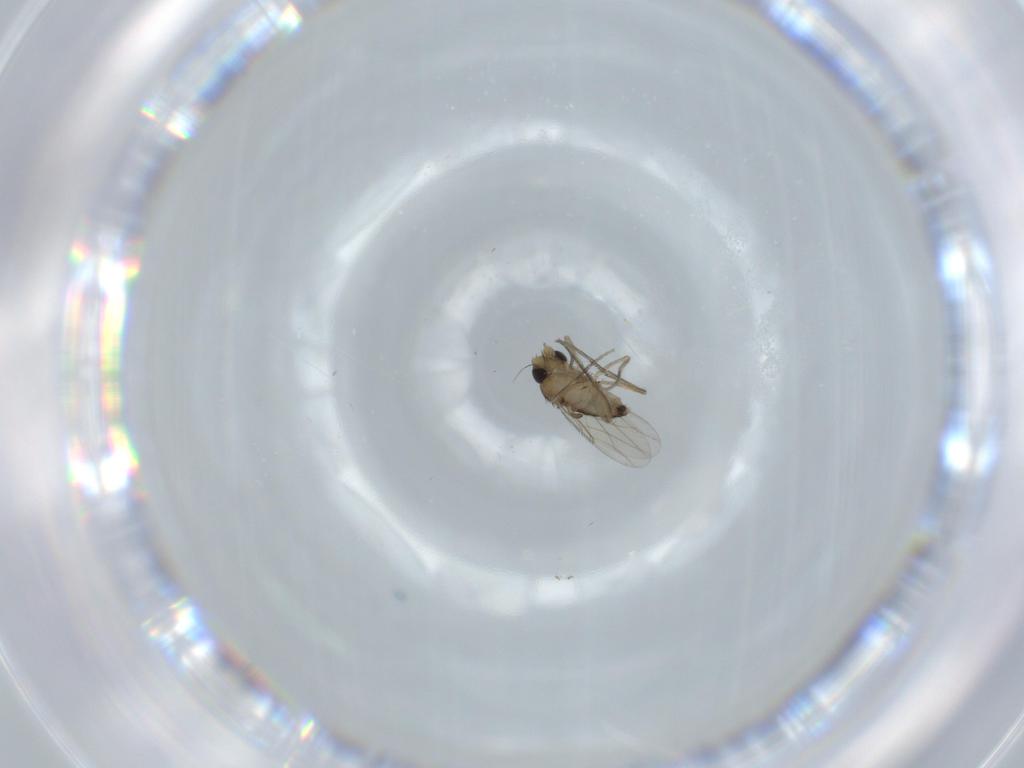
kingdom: Animalia
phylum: Arthropoda
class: Insecta
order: Diptera
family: Phoridae
